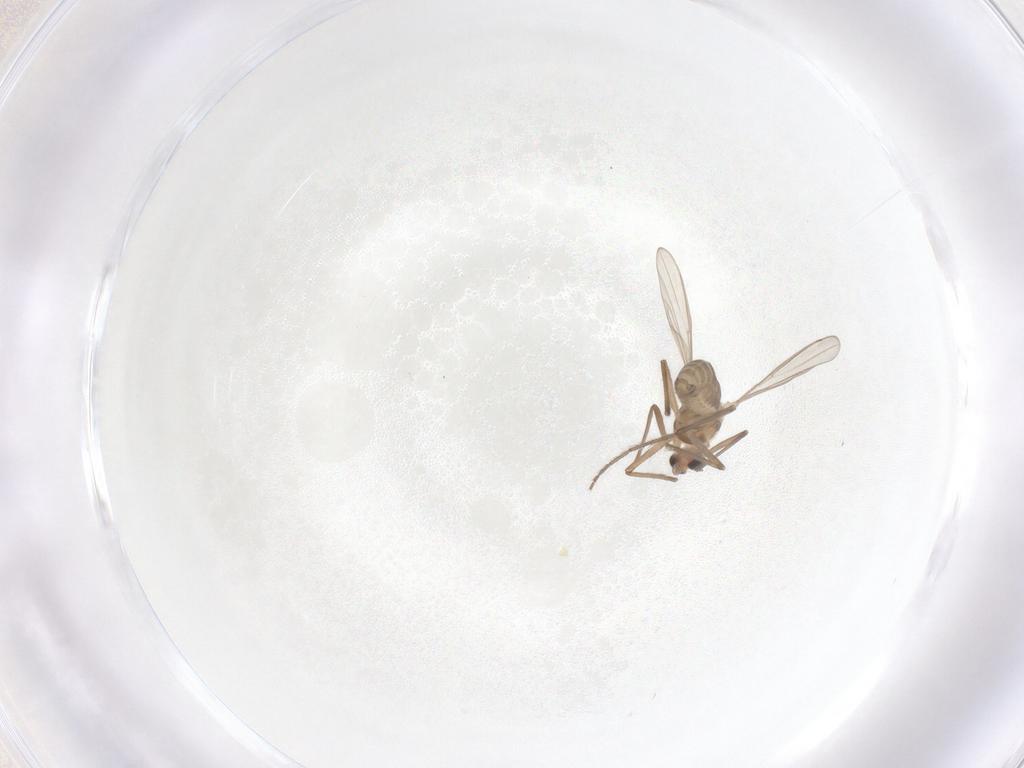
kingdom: Animalia
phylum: Arthropoda
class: Insecta
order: Diptera
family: Chironomidae
